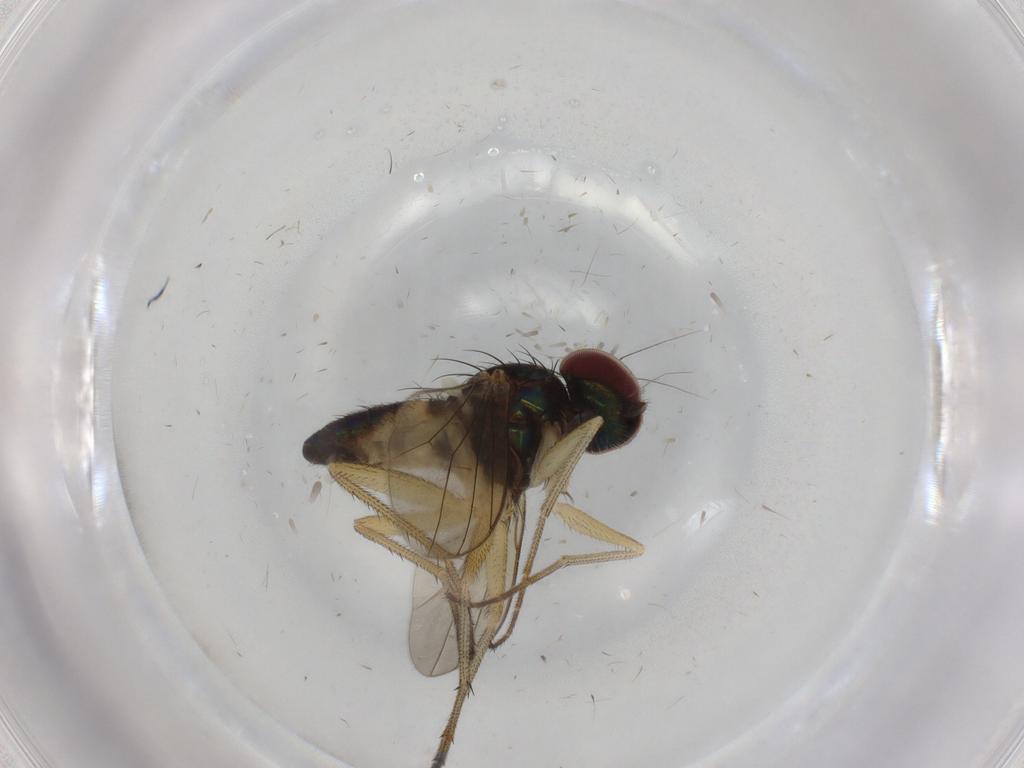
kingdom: Animalia
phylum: Arthropoda
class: Insecta
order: Diptera
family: Dolichopodidae
